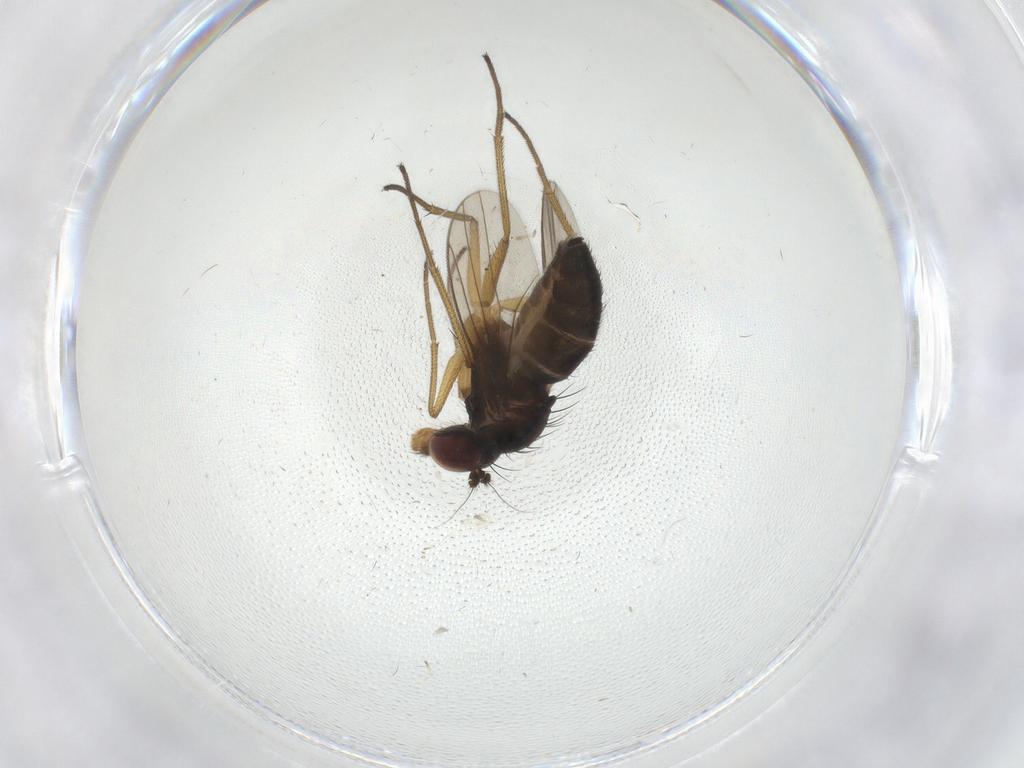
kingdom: Animalia
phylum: Arthropoda
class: Insecta
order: Diptera
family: Dolichopodidae
